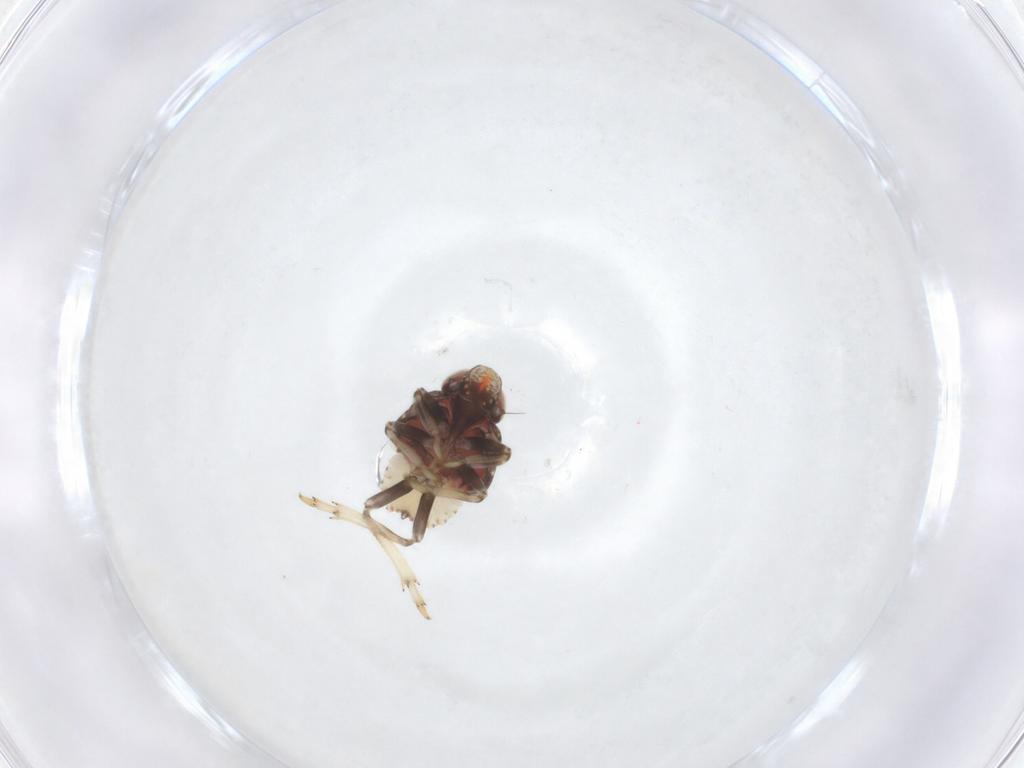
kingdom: Animalia
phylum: Arthropoda
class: Insecta
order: Hemiptera
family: Issidae
